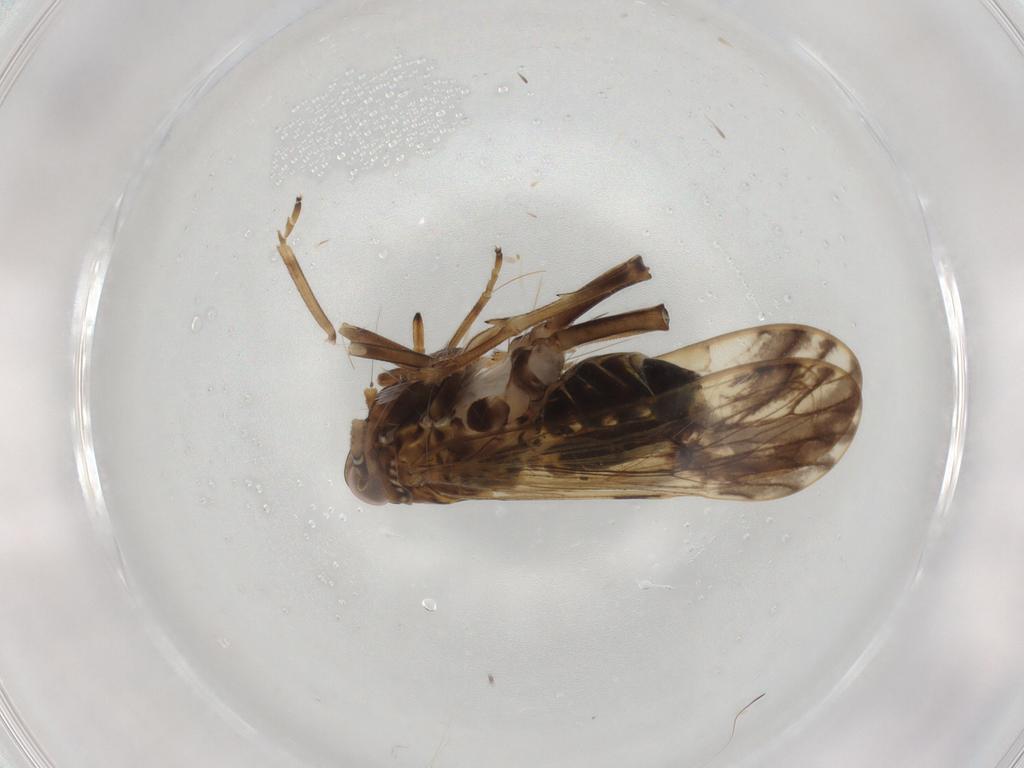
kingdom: Animalia
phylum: Arthropoda
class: Insecta
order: Hemiptera
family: Delphacidae
